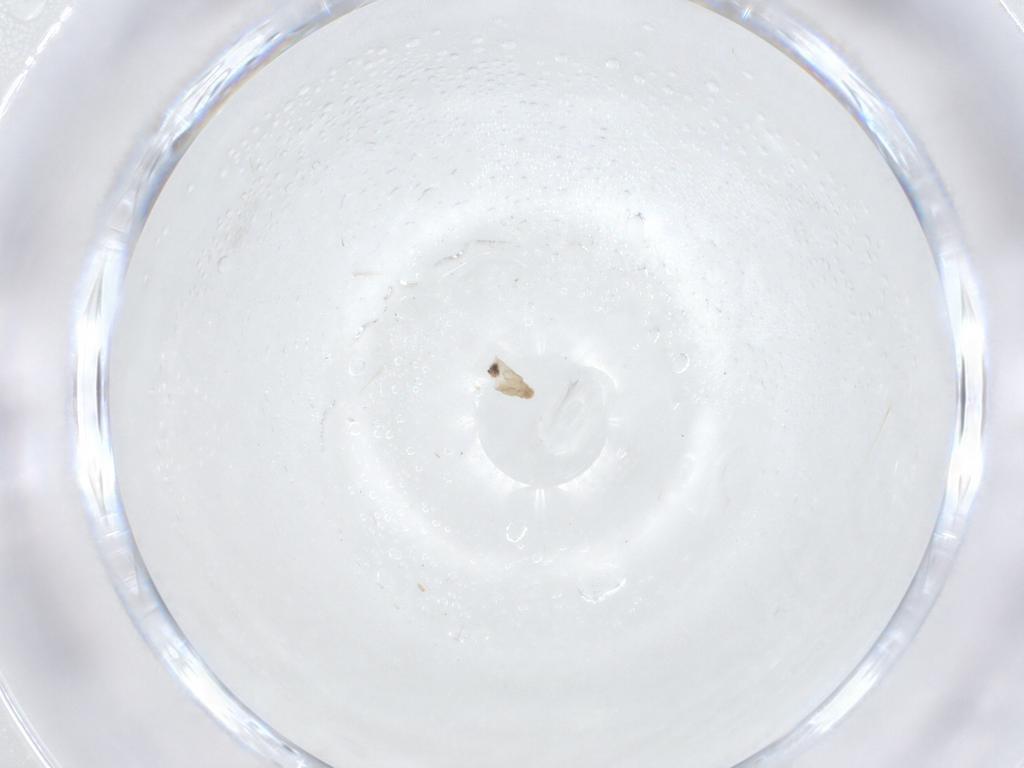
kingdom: Animalia
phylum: Arthropoda
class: Insecta
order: Diptera
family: Cecidomyiidae
